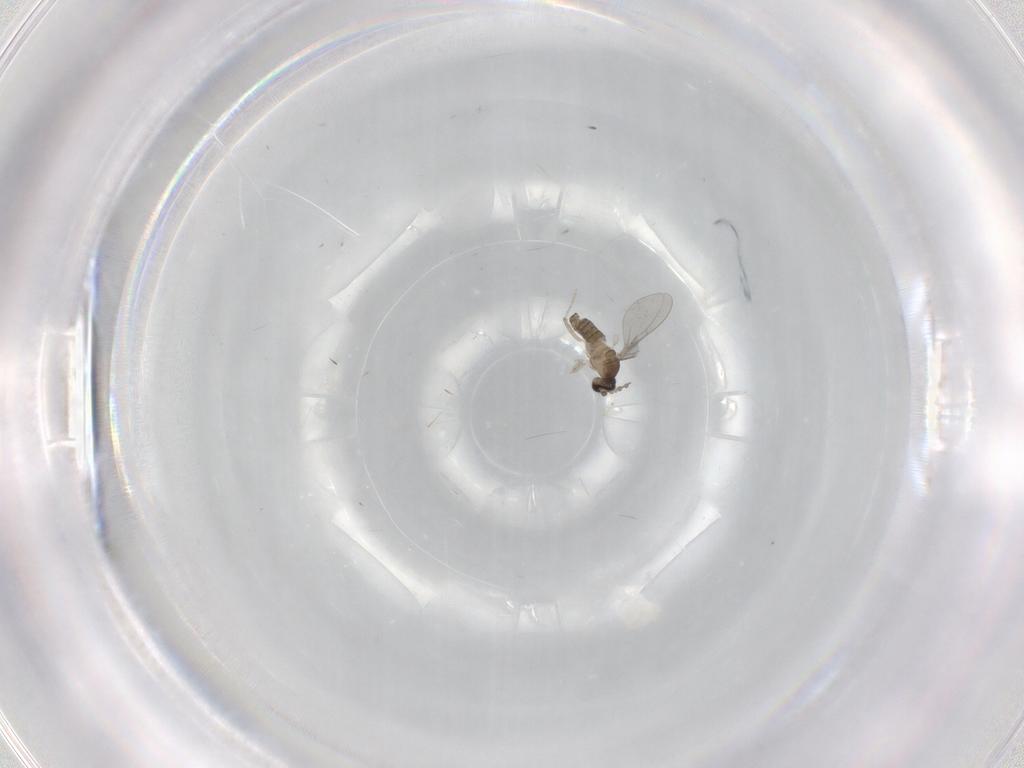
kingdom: Animalia
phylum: Arthropoda
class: Insecta
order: Diptera
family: Cecidomyiidae
